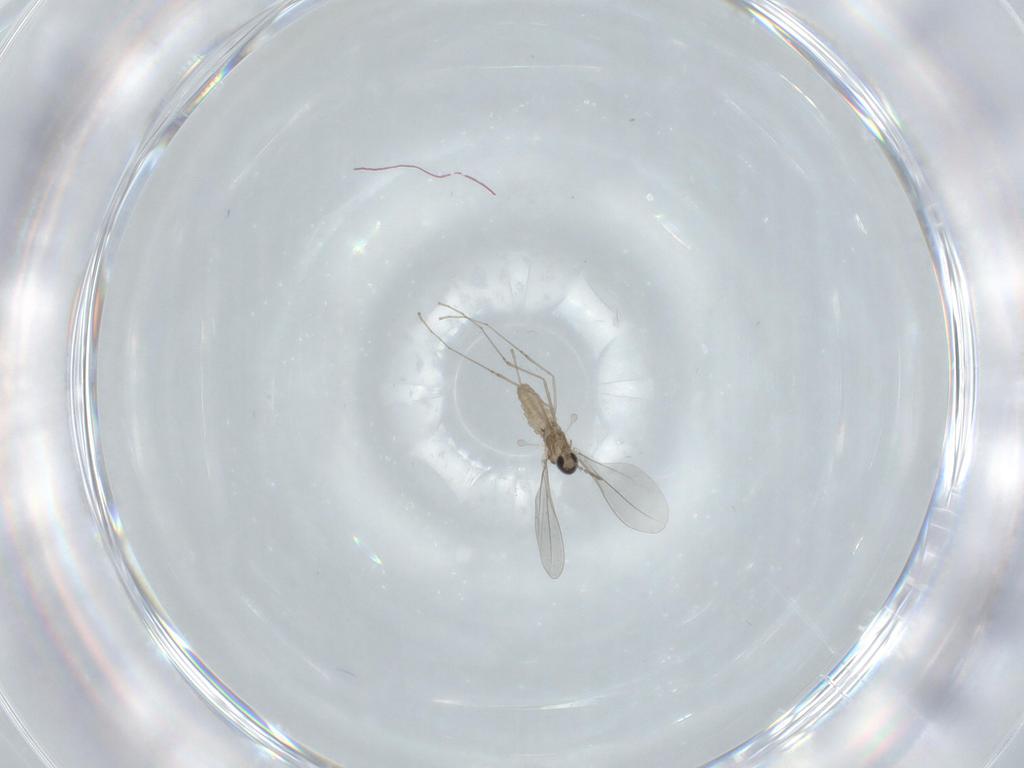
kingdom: Animalia
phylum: Arthropoda
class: Insecta
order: Diptera
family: Cecidomyiidae
